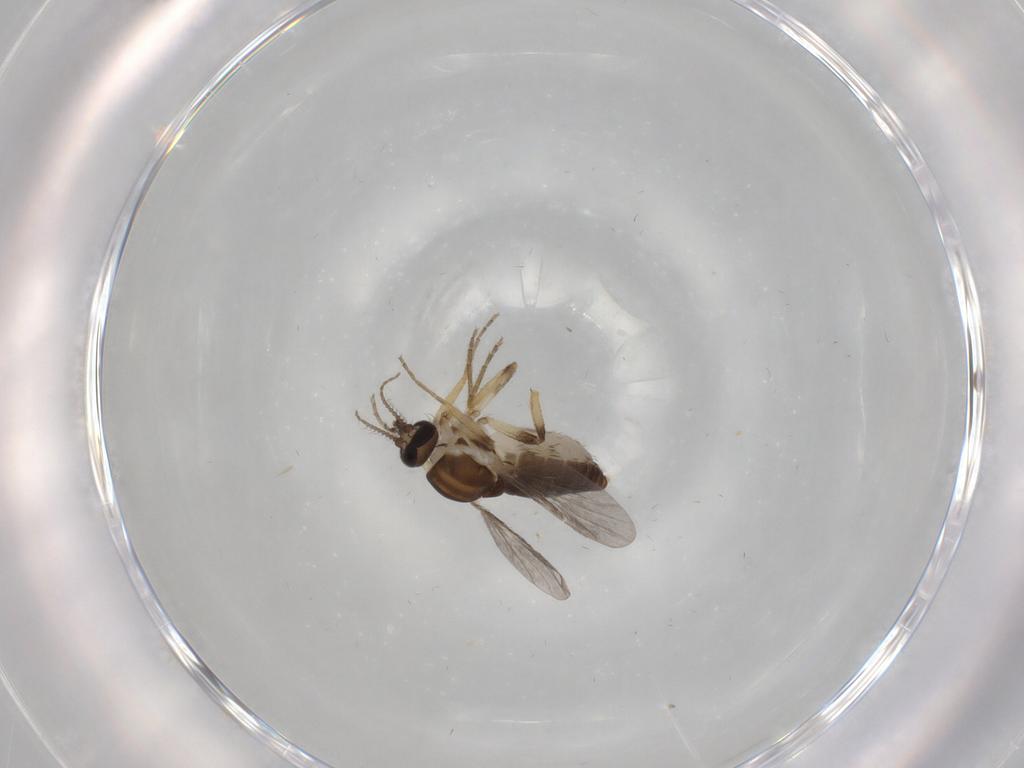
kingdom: Animalia
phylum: Arthropoda
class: Insecta
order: Diptera
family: Ceratopogonidae
